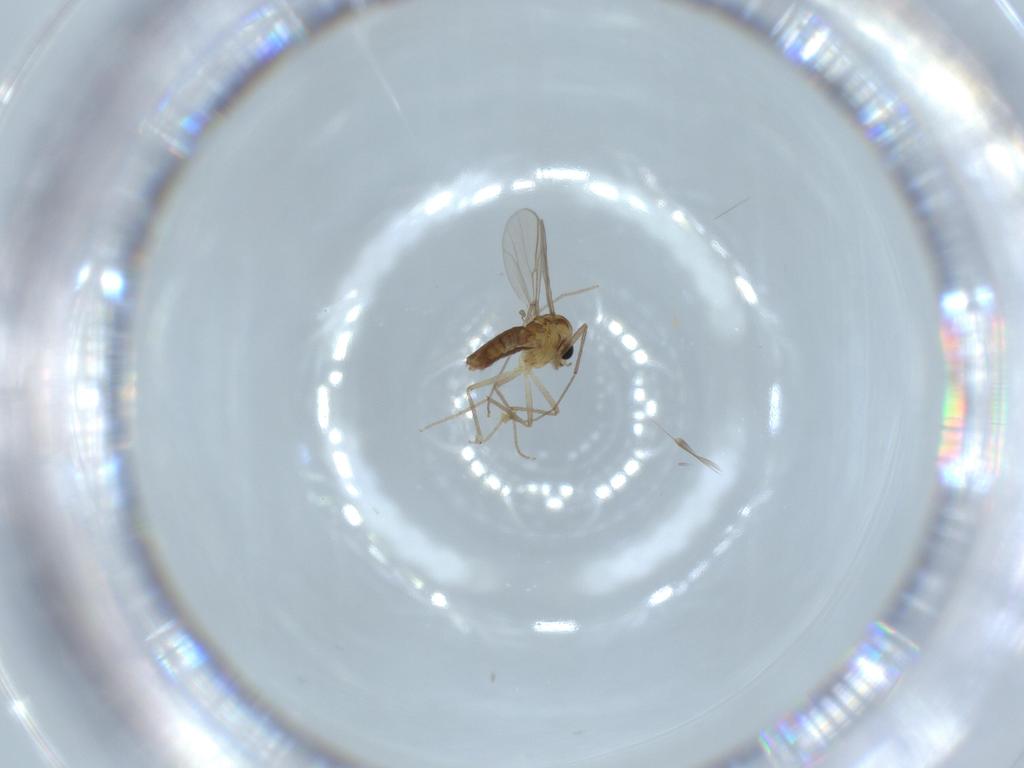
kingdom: Animalia
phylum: Arthropoda
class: Insecta
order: Diptera
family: Chironomidae
